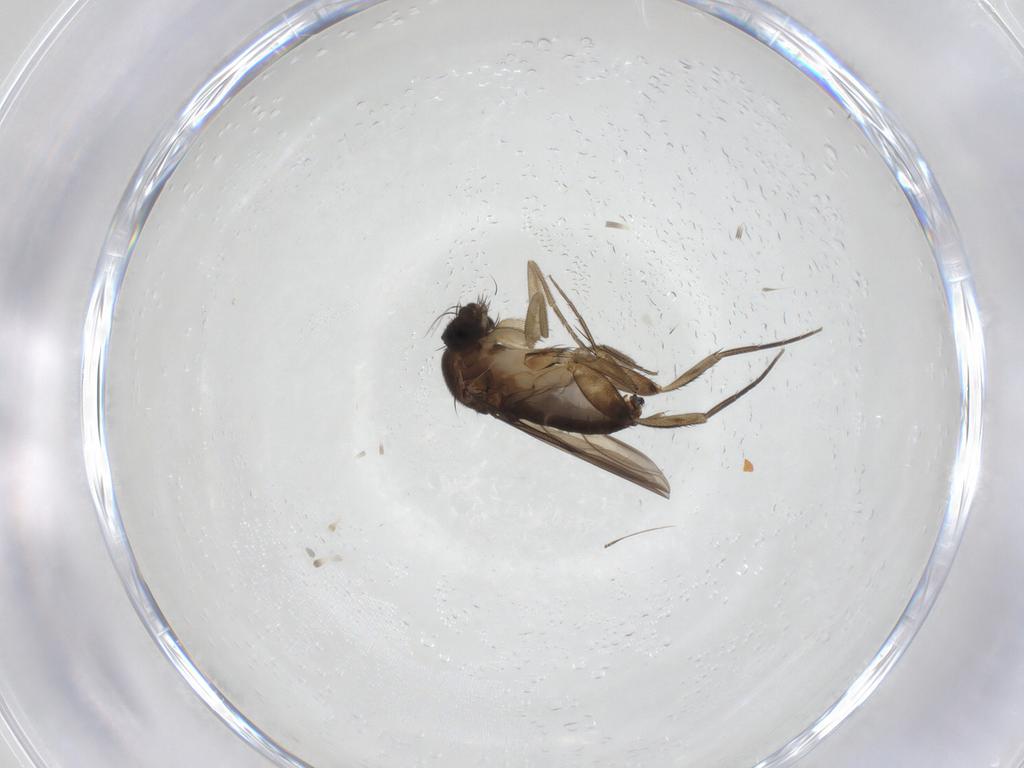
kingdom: Animalia
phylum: Arthropoda
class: Insecta
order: Diptera
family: Phoridae
